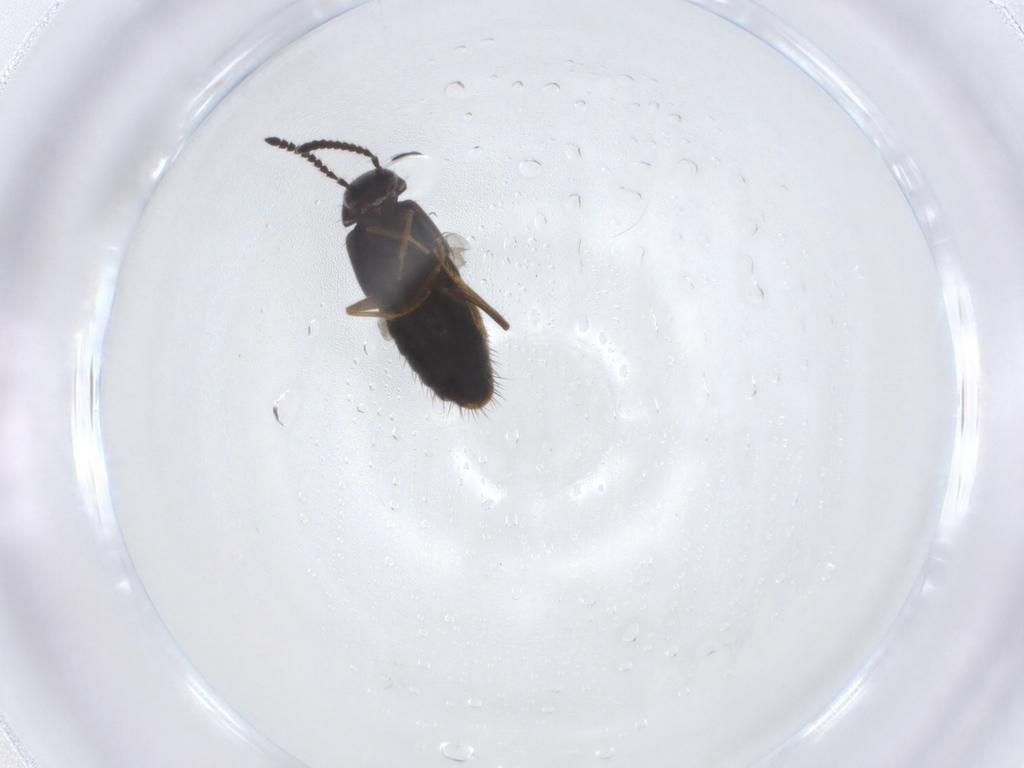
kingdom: Animalia
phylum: Arthropoda
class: Insecta
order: Coleoptera
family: Staphylinidae
